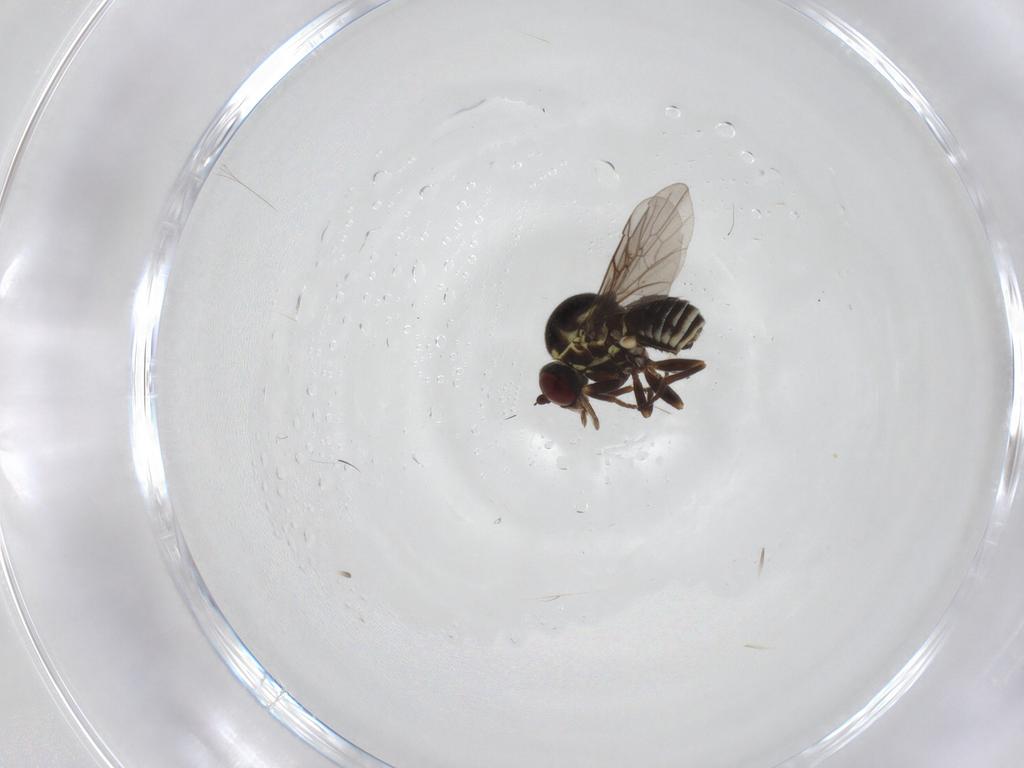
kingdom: Animalia
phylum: Arthropoda
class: Insecta
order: Diptera
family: Bombyliidae
